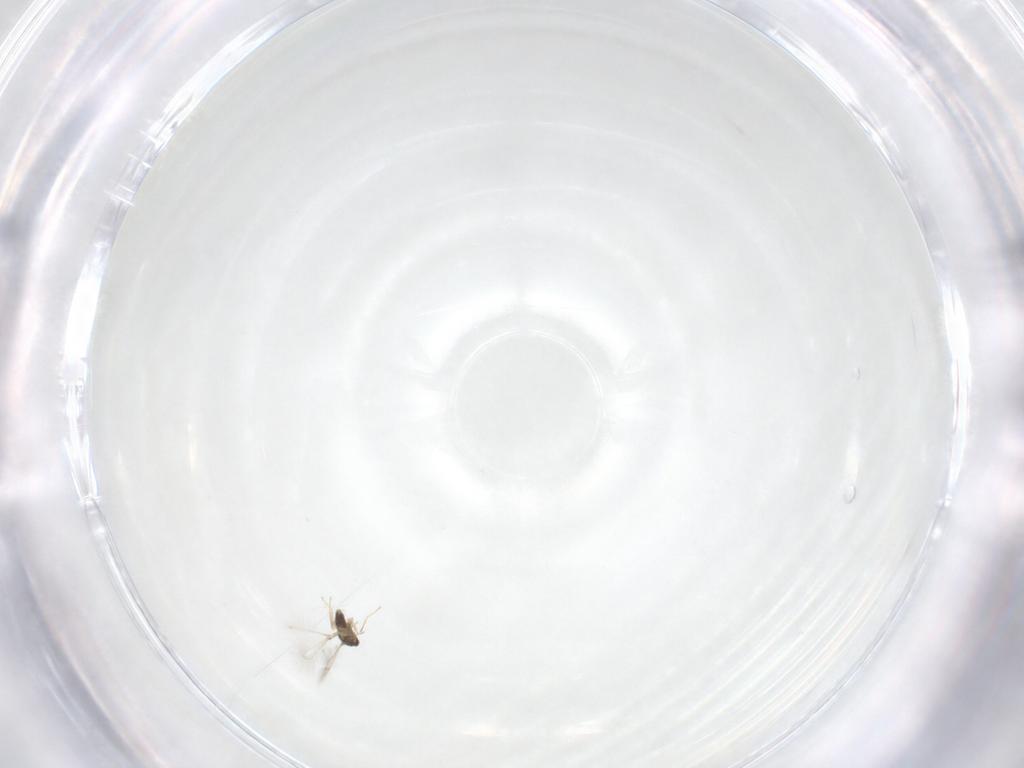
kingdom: Animalia
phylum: Arthropoda
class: Insecta
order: Hymenoptera
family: Mymaridae
